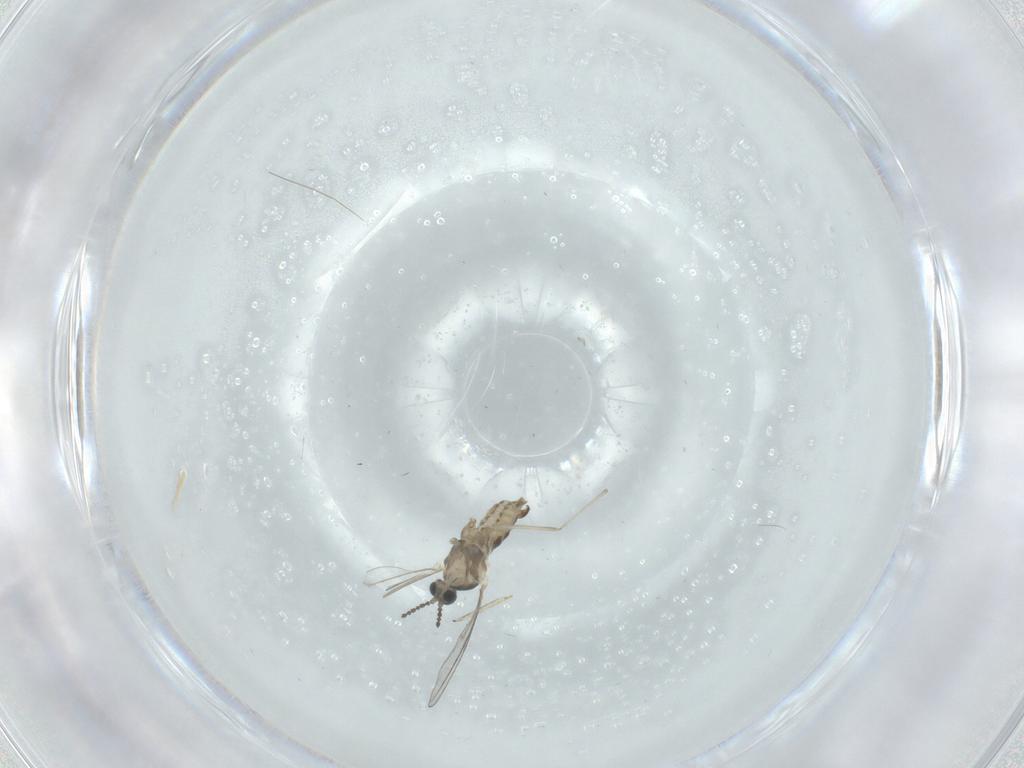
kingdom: Animalia
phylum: Arthropoda
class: Insecta
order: Diptera
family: Cecidomyiidae
